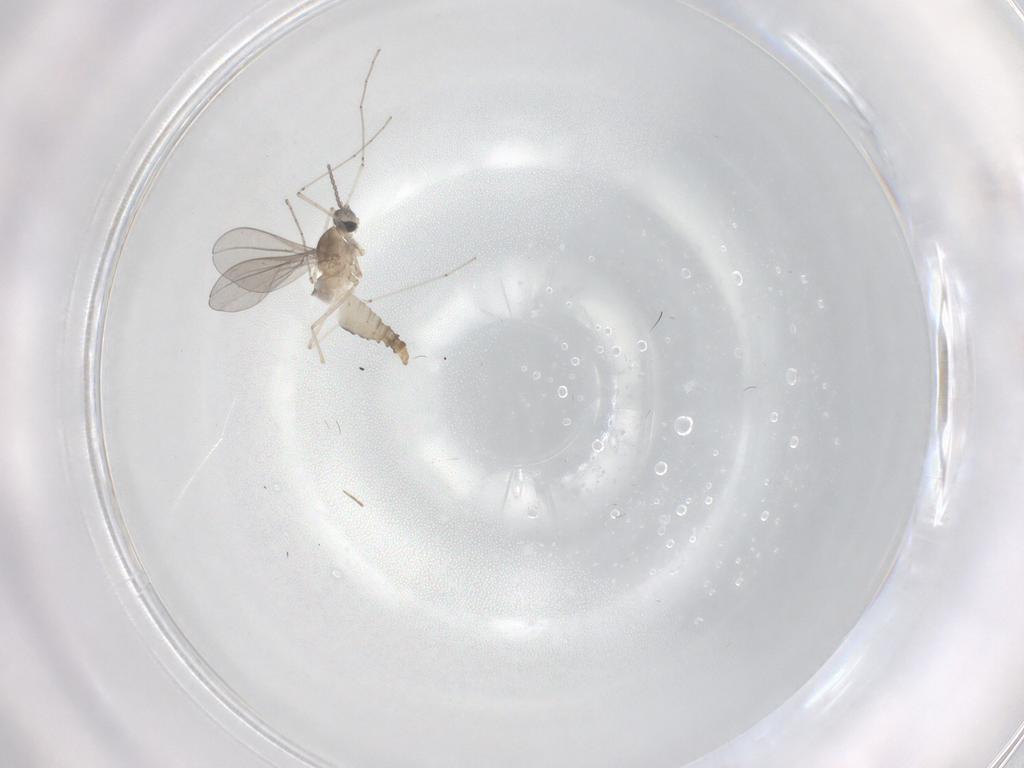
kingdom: Animalia
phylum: Arthropoda
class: Insecta
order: Diptera
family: Cecidomyiidae
